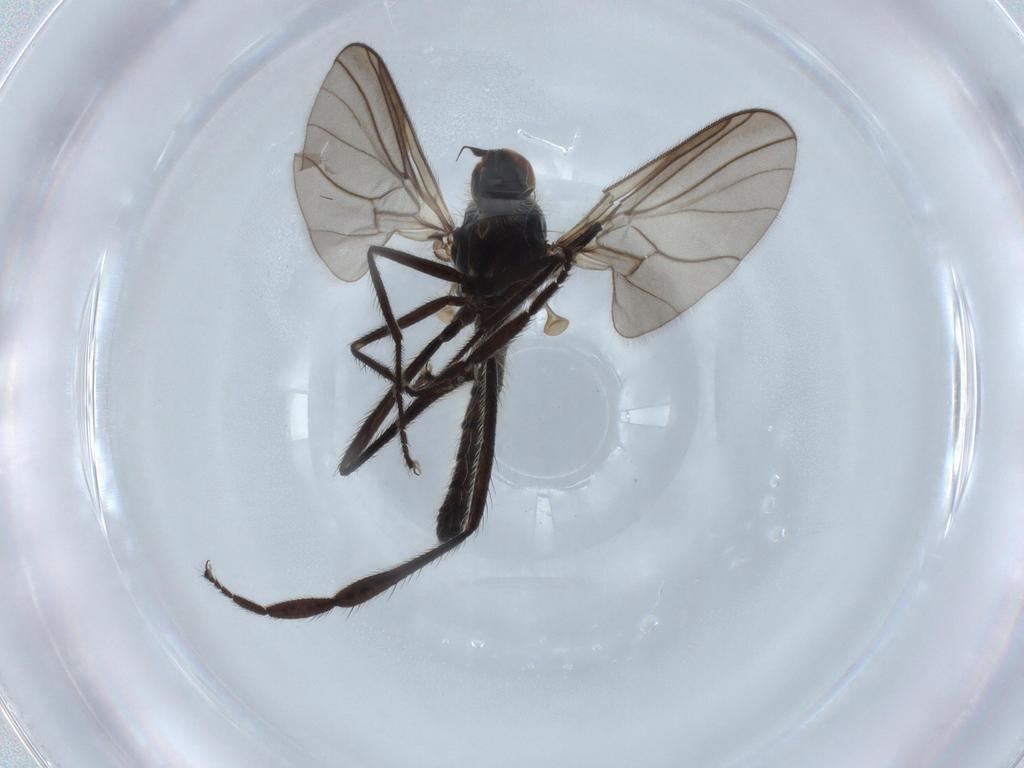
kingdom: Animalia
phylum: Arthropoda
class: Insecta
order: Diptera
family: Hybotidae
